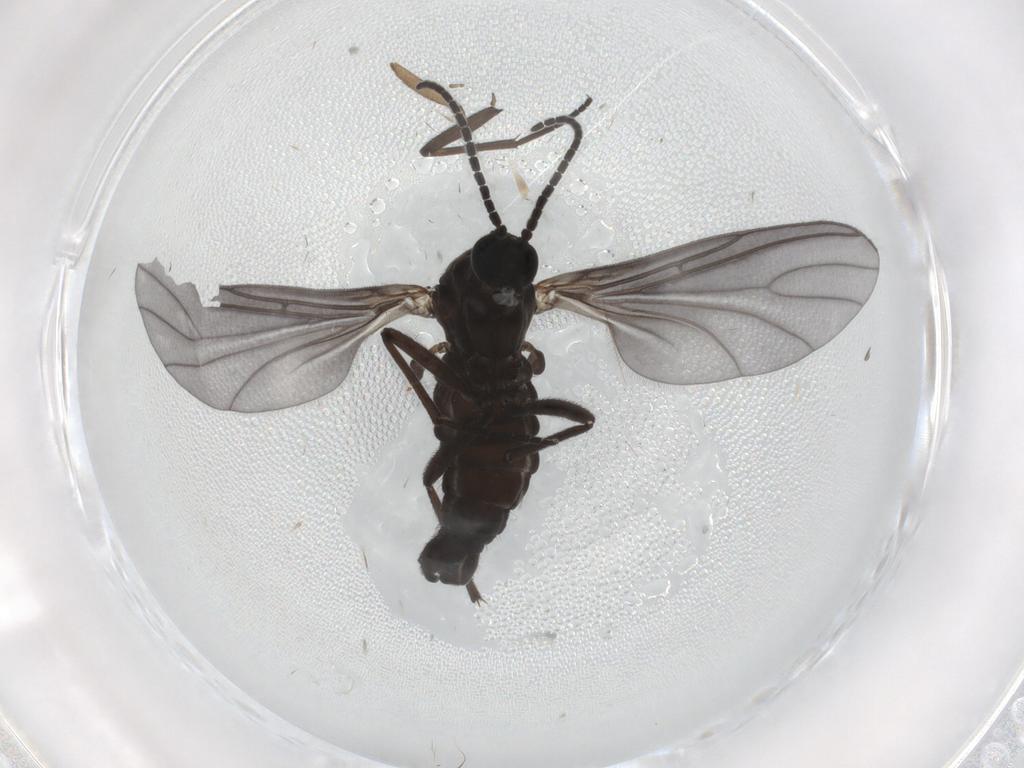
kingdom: Animalia
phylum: Arthropoda
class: Insecta
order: Diptera
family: Sciaridae
